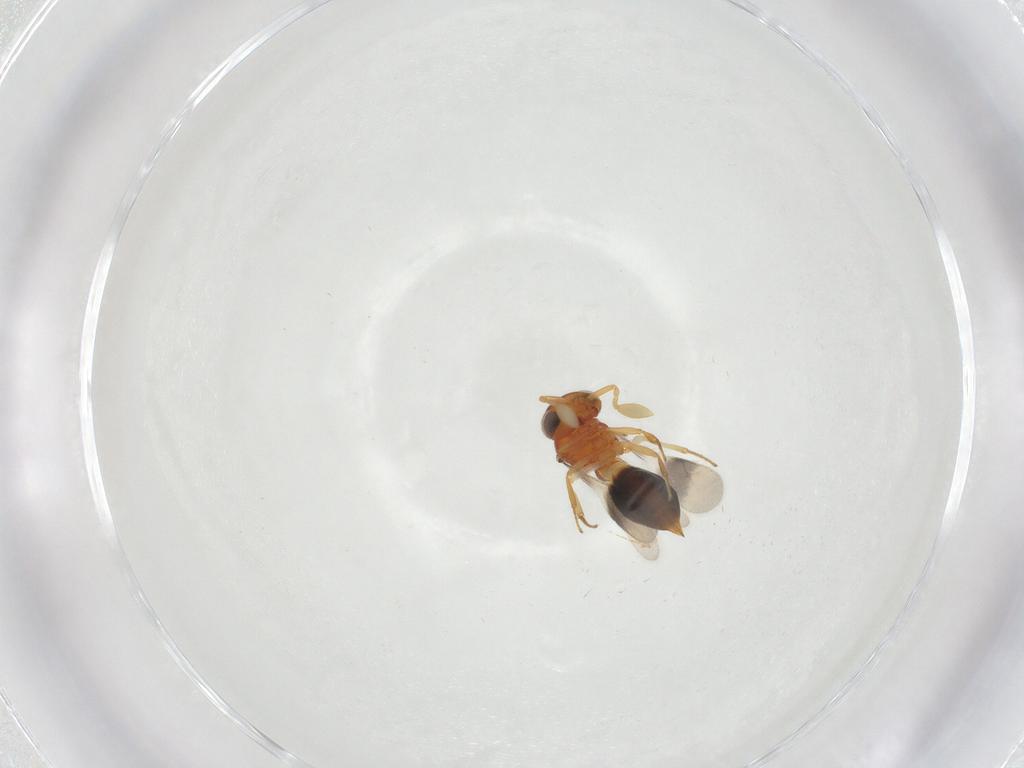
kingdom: Animalia
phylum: Arthropoda
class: Insecta
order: Hymenoptera
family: Scelionidae
